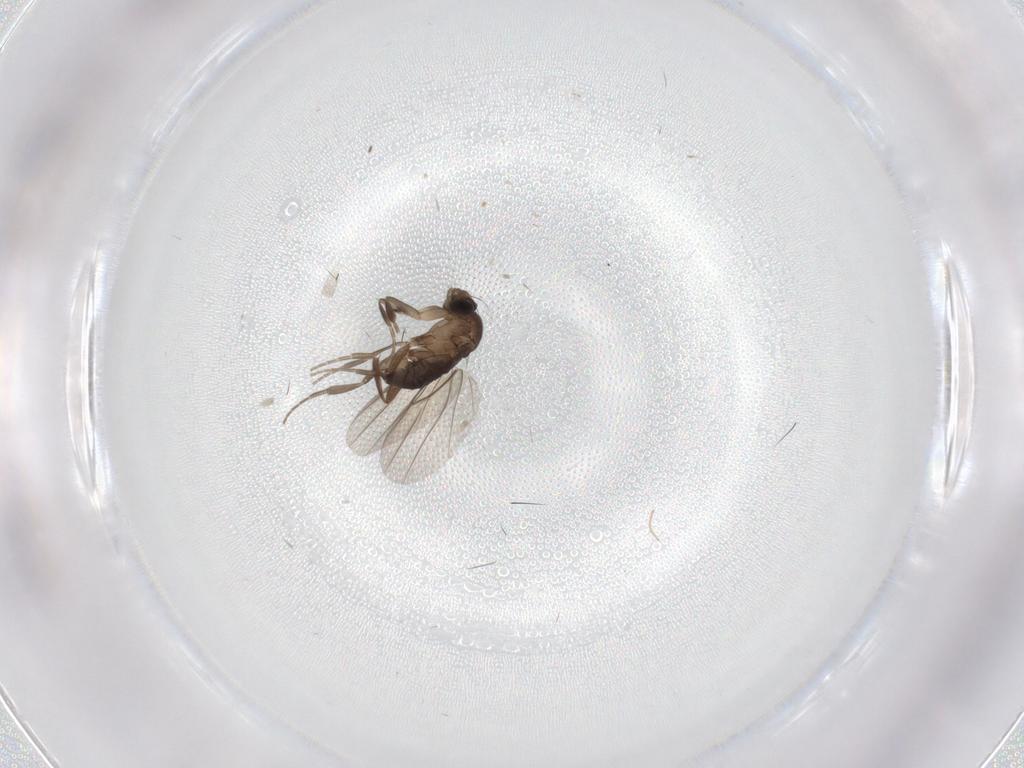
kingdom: Animalia
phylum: Arthropoda
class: Insecta
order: Diptera
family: Phoridae
